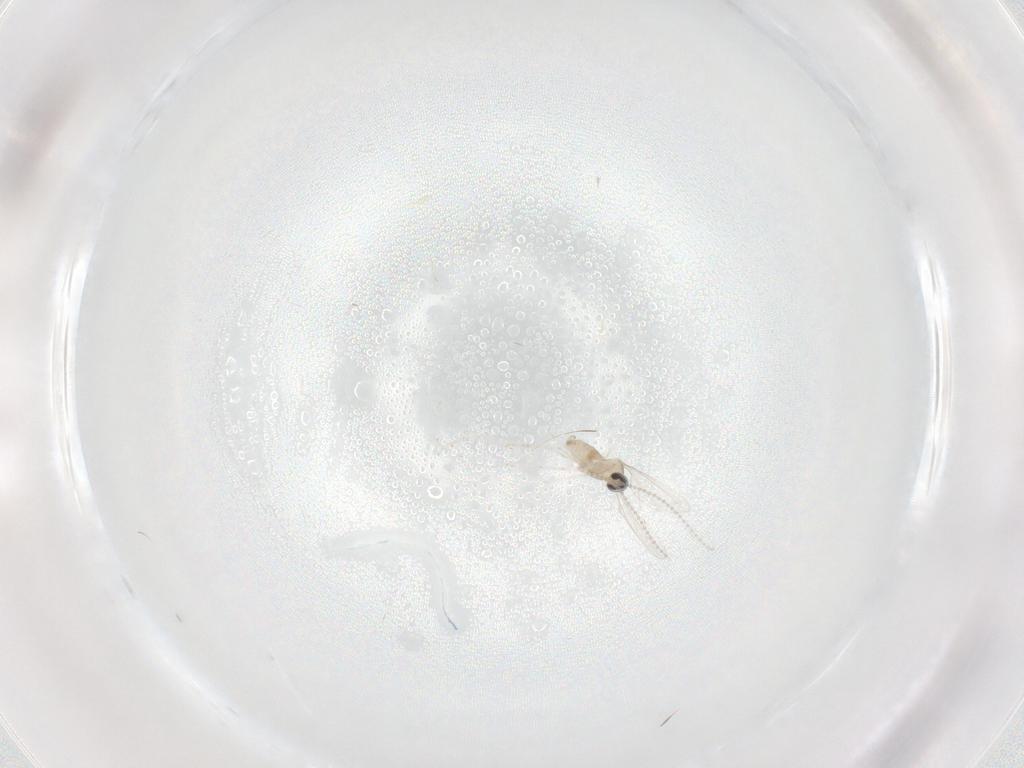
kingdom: Animalia
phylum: Arthropoda
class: Insecta
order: Diptera
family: Cecidomyiidae
